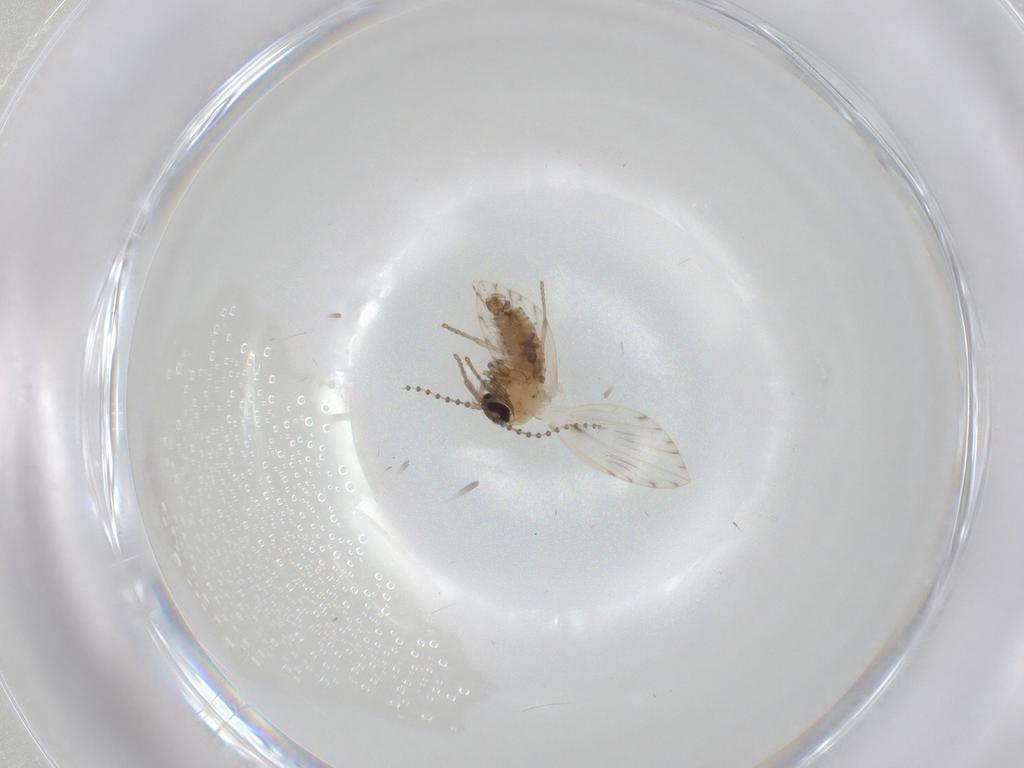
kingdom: Animalia
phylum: Arthropoda
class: Insecta
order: Diptera
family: Psychodidae
